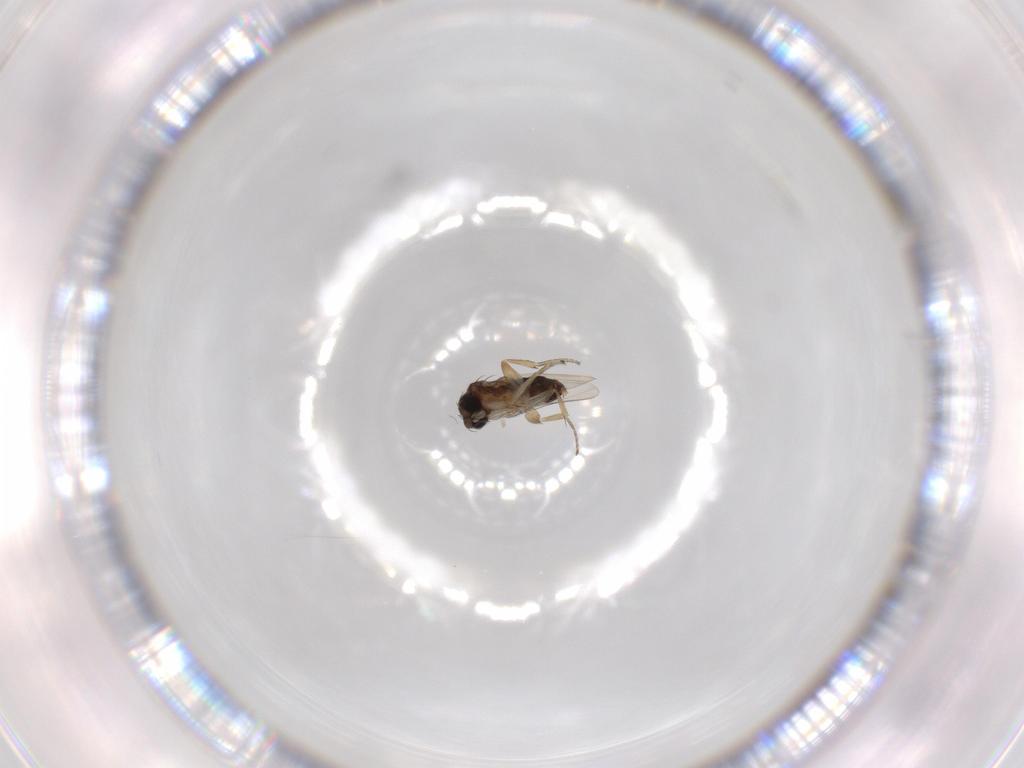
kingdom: Animalia
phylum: Arthropoda
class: Insecta
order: Diptera
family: Phoridae
